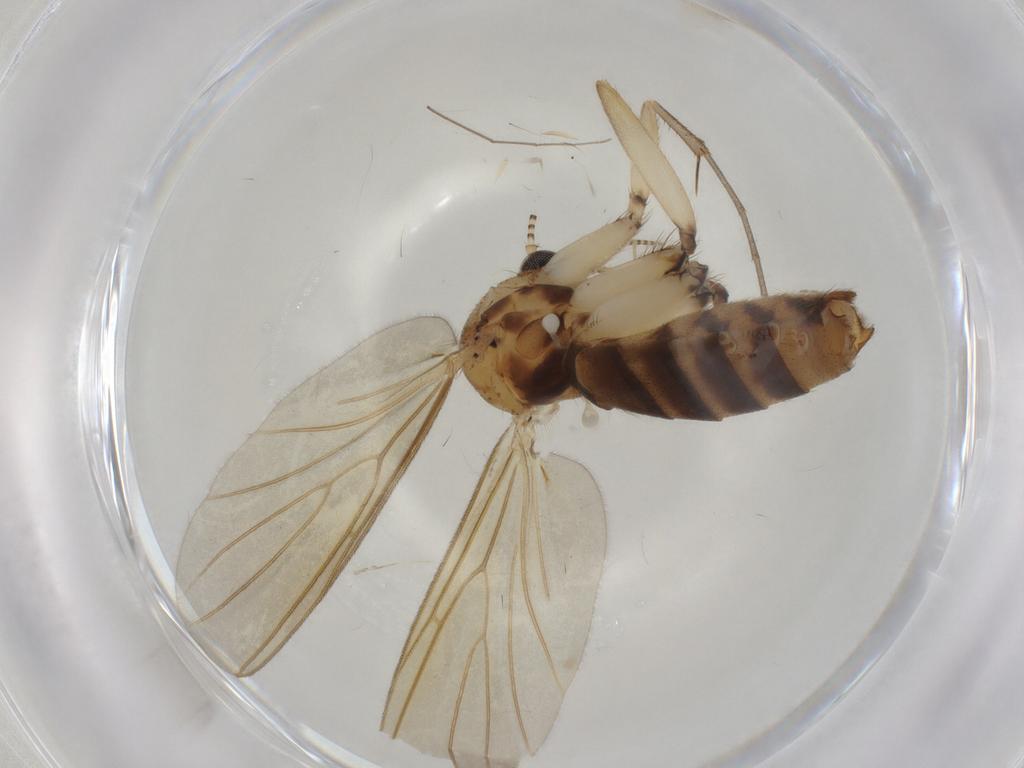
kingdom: Animalia
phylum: Arthropoda
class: Insecta
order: Diptera
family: Mycetophilidae
